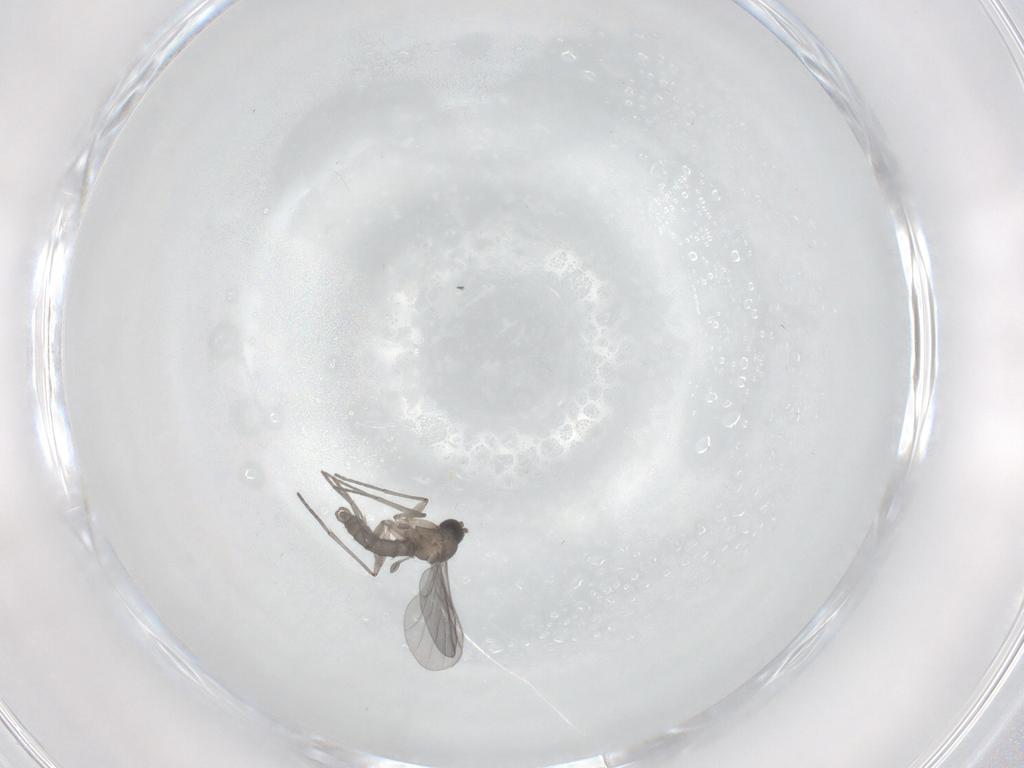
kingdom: Animalia
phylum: Arthropoda
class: Insecta
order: Diptera
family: Chironomidae
